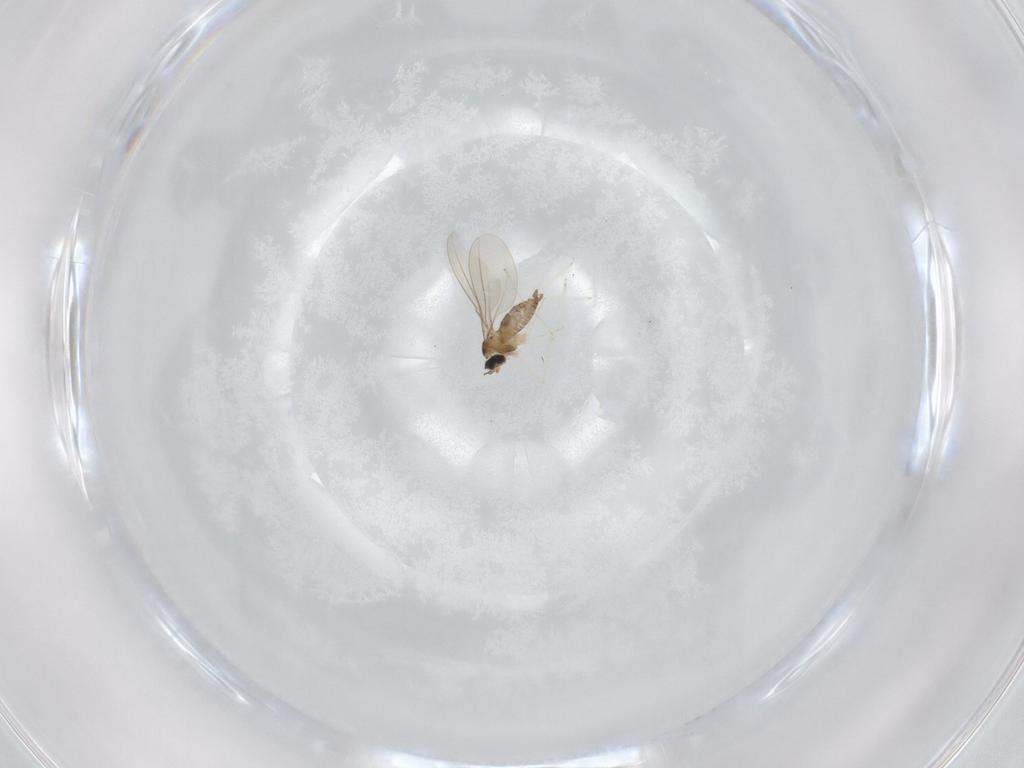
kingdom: Animalia
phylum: Arthropoda
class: Insecta
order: Diptera
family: Cecidomyiidae
